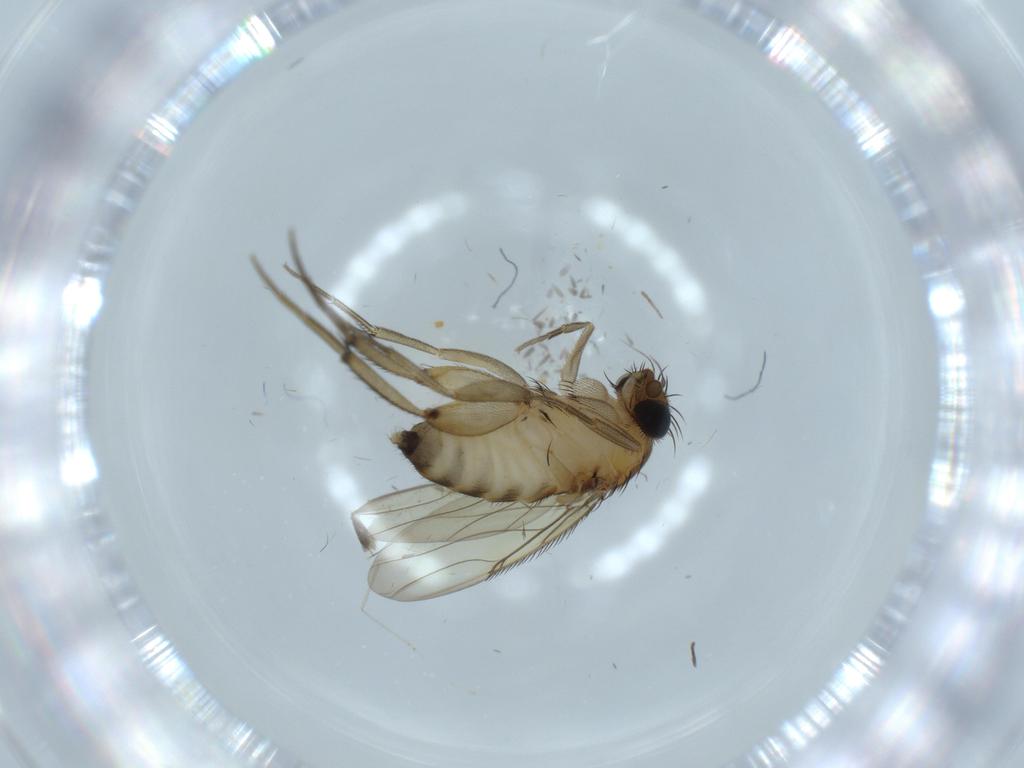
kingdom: Animalia
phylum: Arthropoda
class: Insecta
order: Diptera
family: Phoridae
